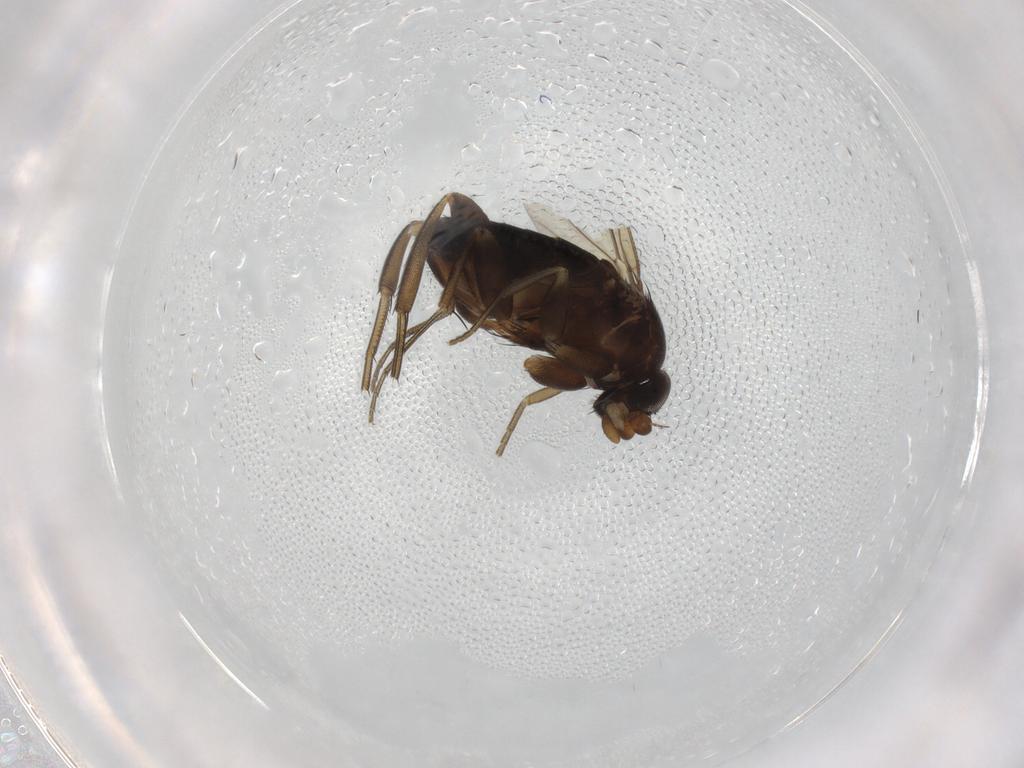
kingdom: Animalia
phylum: Arthropoda
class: Insecta
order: Diptera
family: Phoridae
